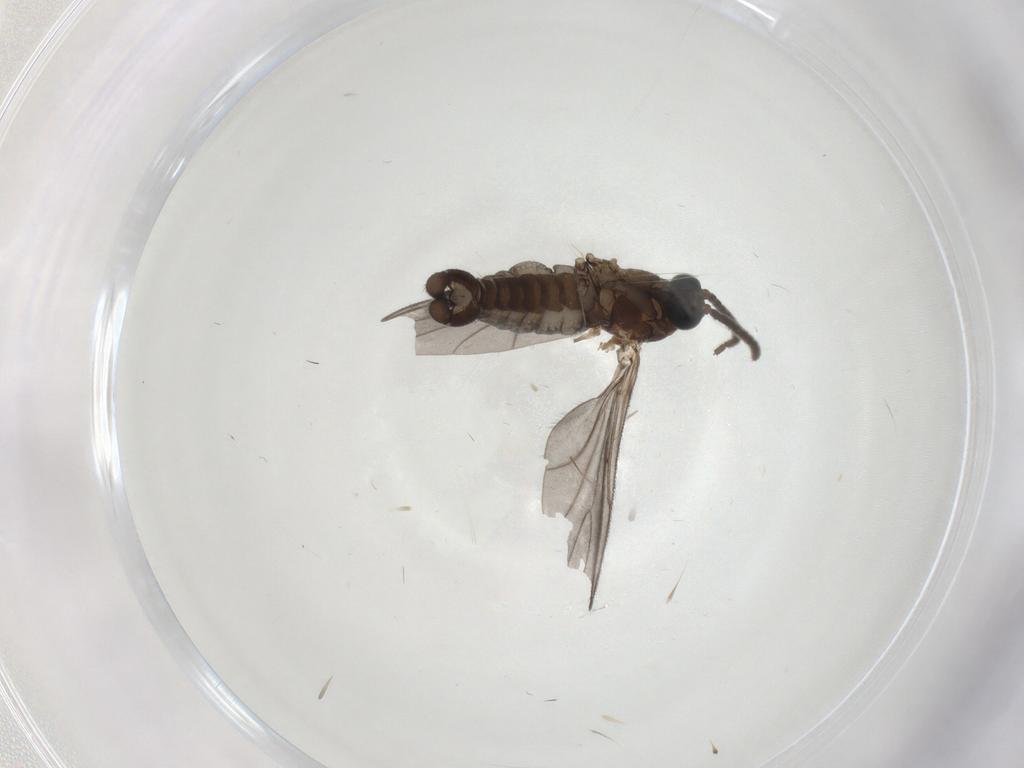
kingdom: Animalia
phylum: Arthropoda
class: Insecta
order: Diptera
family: Sciaridae
